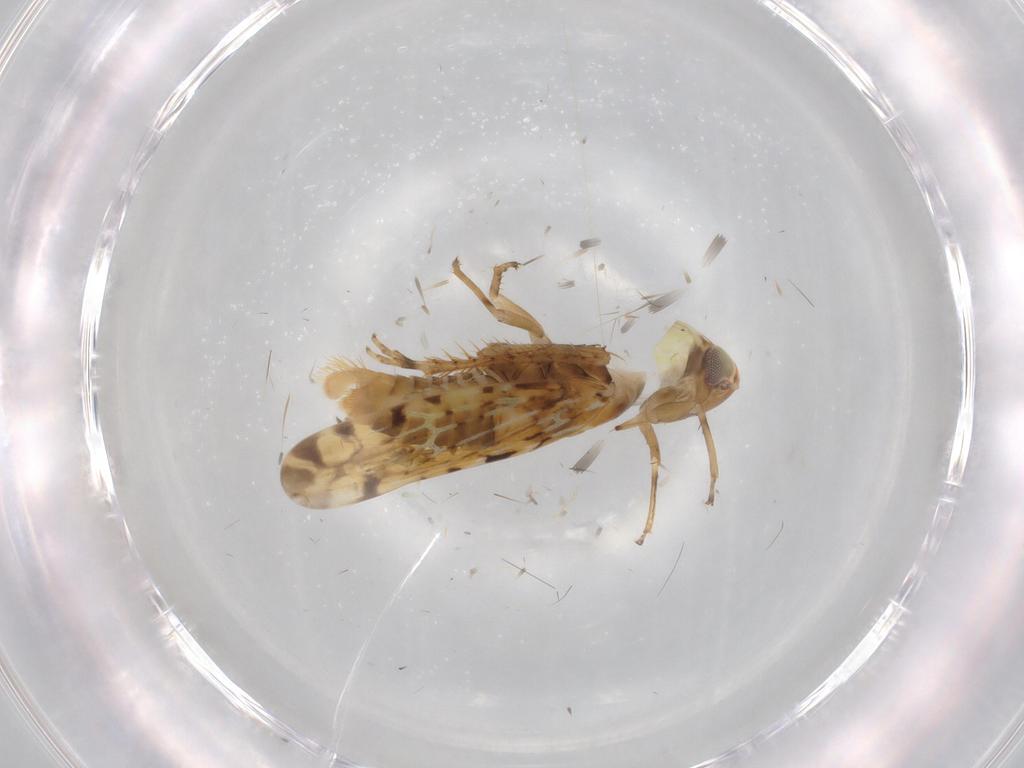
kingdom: Animalia
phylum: Arthropoda
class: Insecta
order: Hemiptera
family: Cicadellidae
